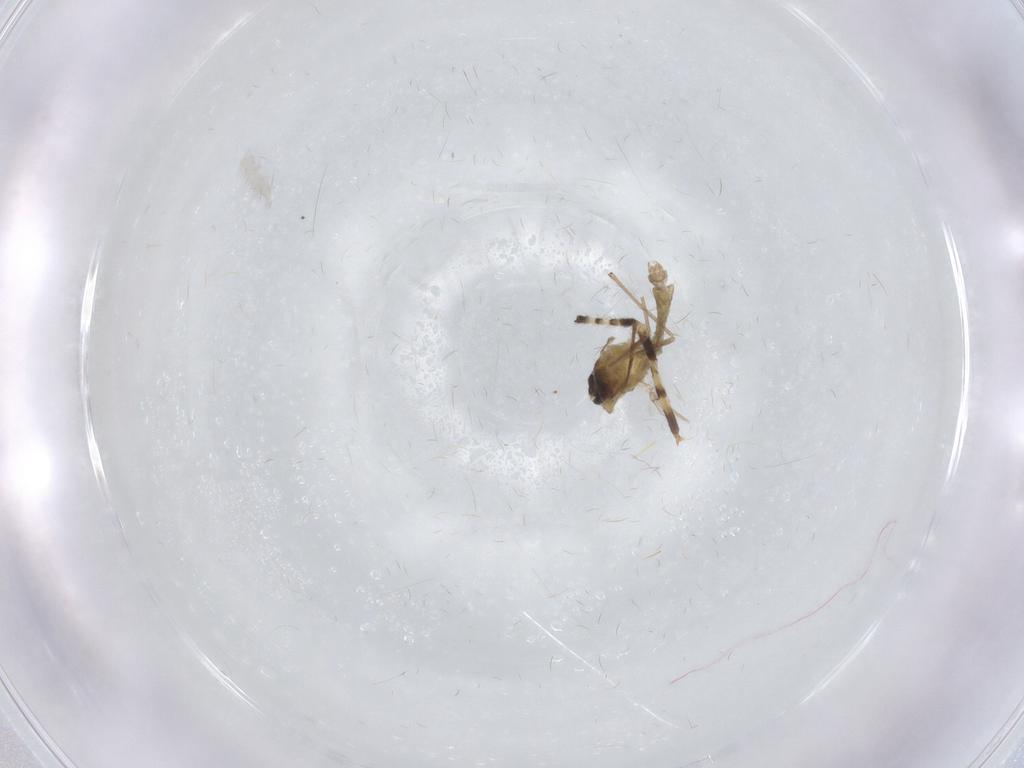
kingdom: Animalia
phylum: Arthropoda
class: Insecta
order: Diptera
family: Chironomidae
